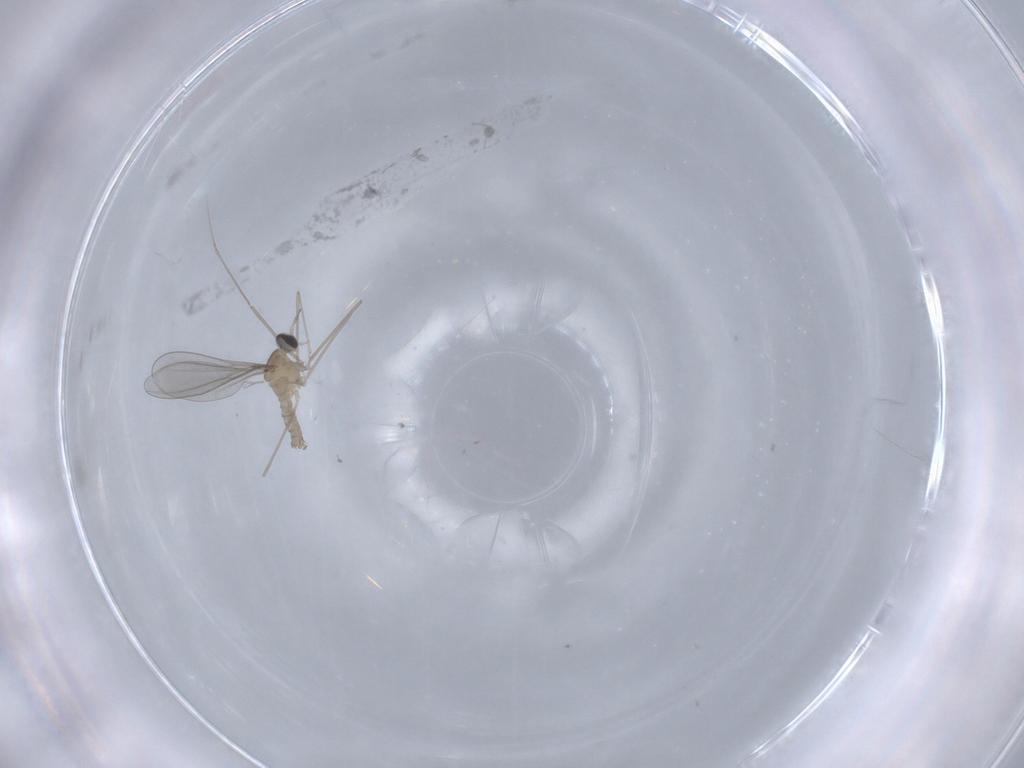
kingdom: Animalia
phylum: Arthropoda
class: Insecta
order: Diptera
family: Cecidomyiidae
